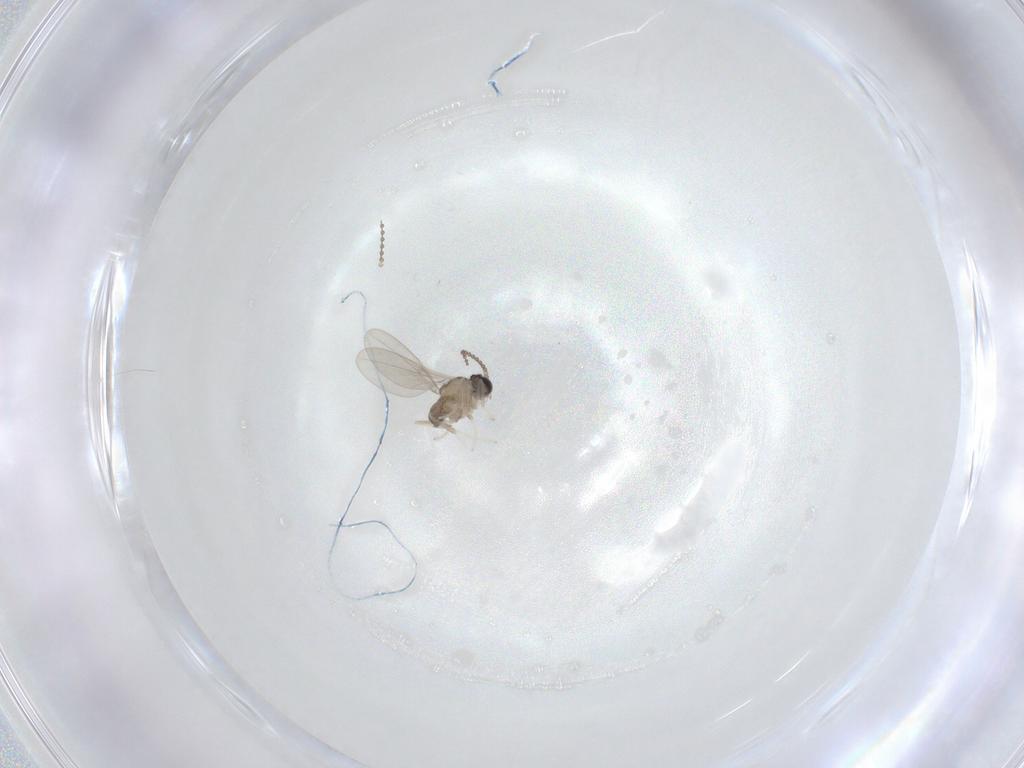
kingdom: Animalia
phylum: Arthropoda
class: Insecta
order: Diptera
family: Cecidomyiidae
